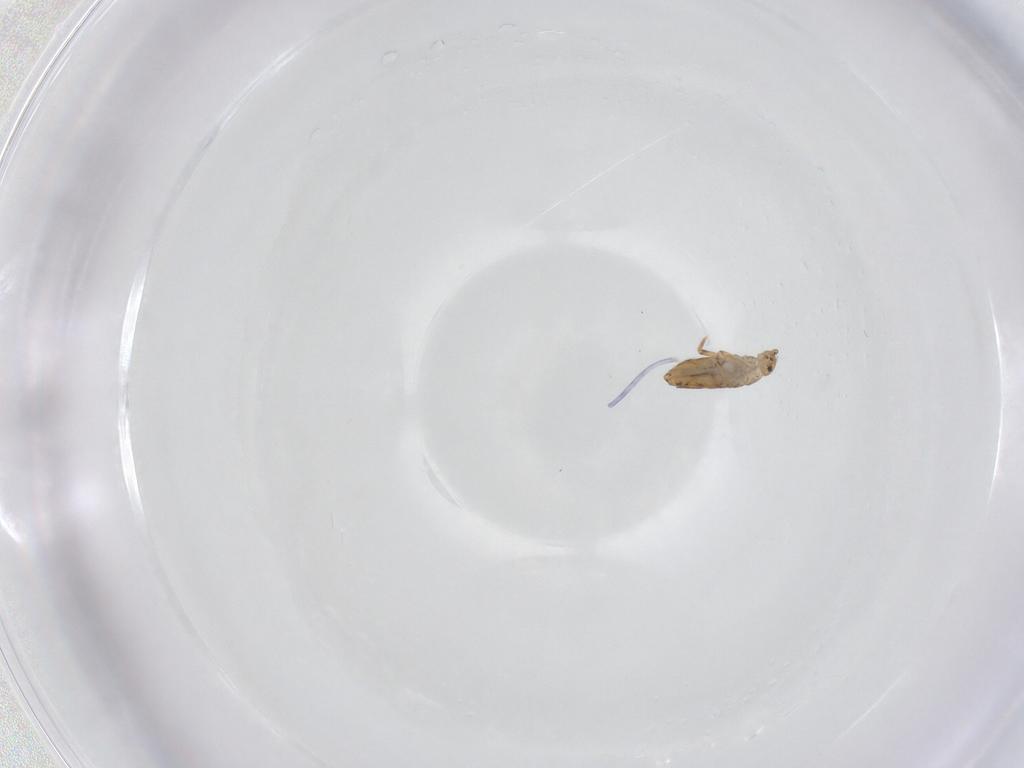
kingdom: Animalia
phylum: Arthropoda
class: Collembola
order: Entomobryomorpha
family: Entomobryidae
